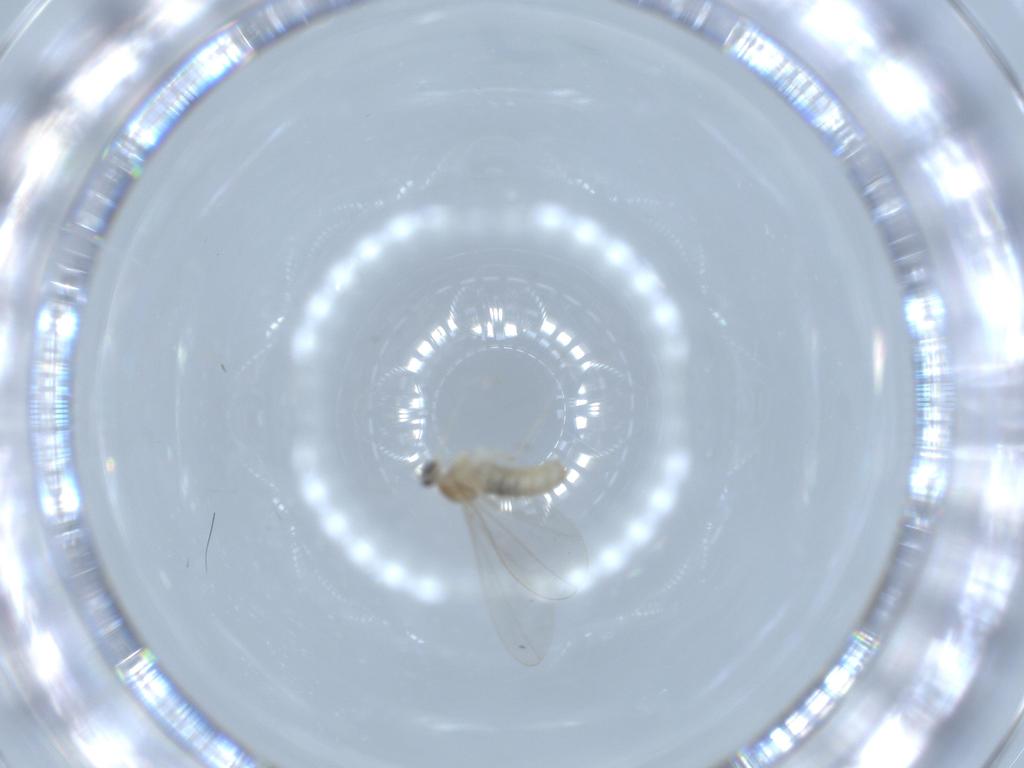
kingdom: Animalia
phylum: Arthropoda
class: Insecta
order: Diptera
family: Cecidomyiidae
